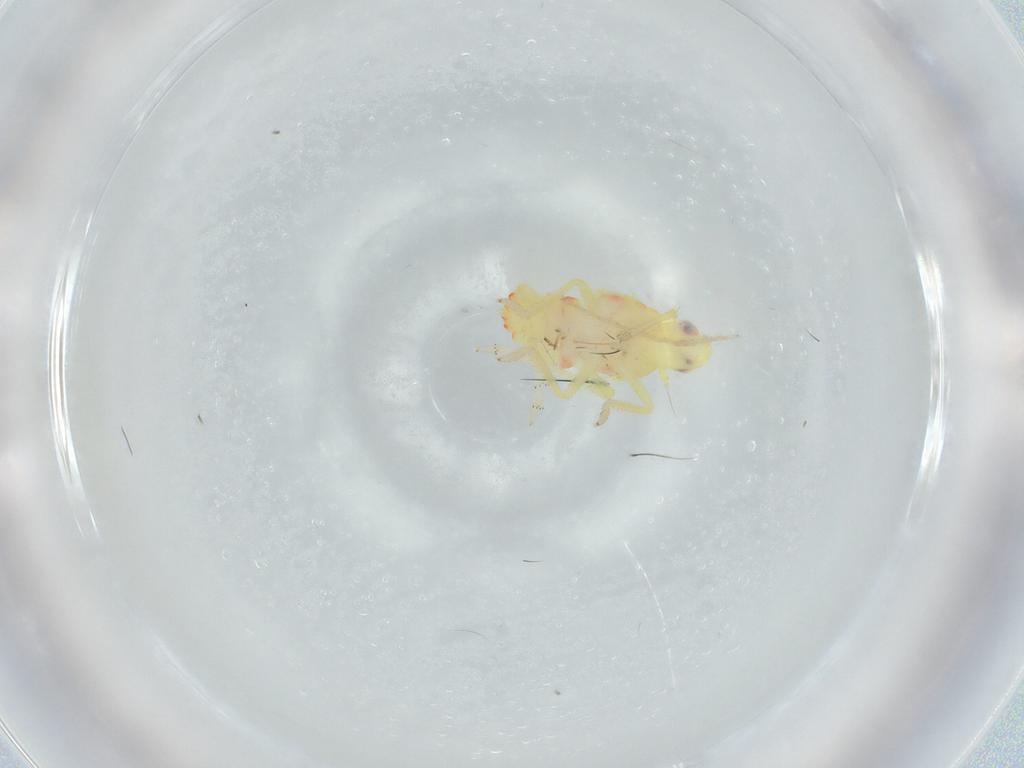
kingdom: Animalia
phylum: Arthropoda
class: Insecta
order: Hemiptera
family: Tropiduchidae
